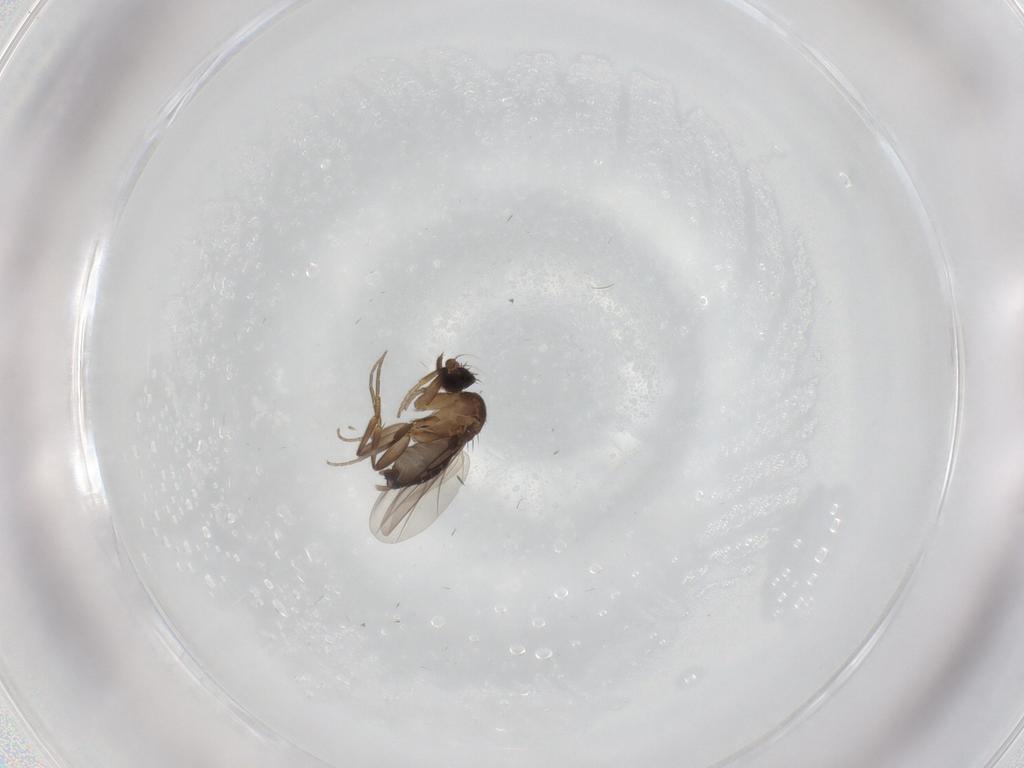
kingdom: Animalia
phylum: Arthropoda
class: Insecta
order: Diptera
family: Phoridae
